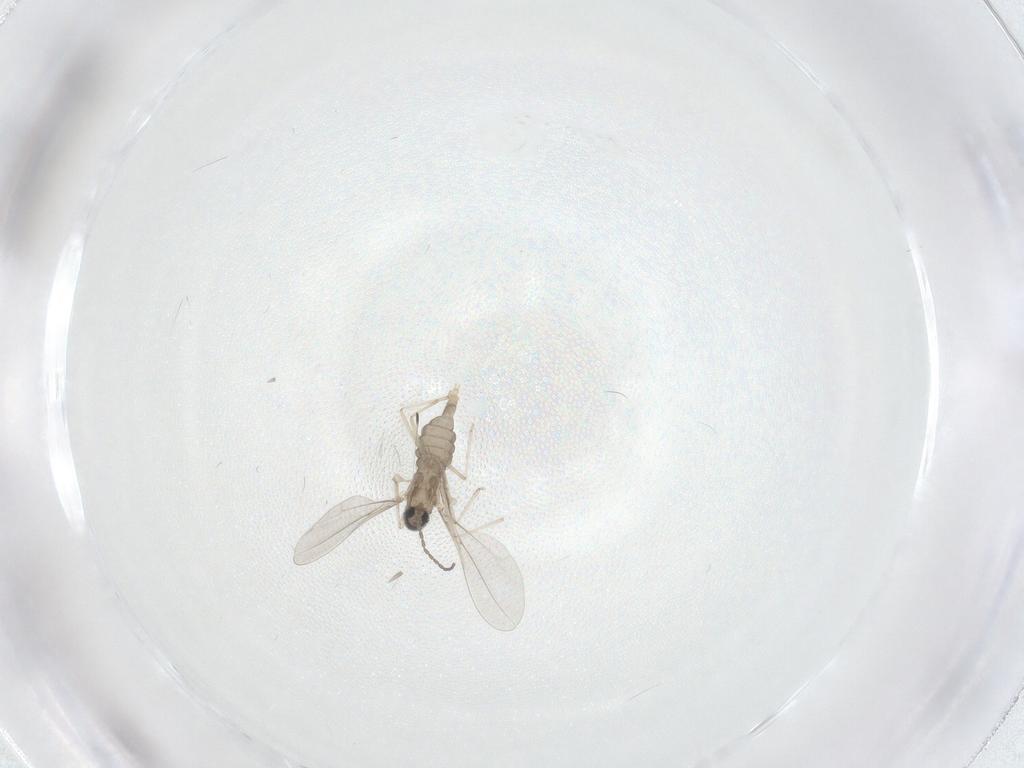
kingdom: Animalia
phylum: Arthropoda
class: Insecta
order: Diptera
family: Cecidomyiidae
